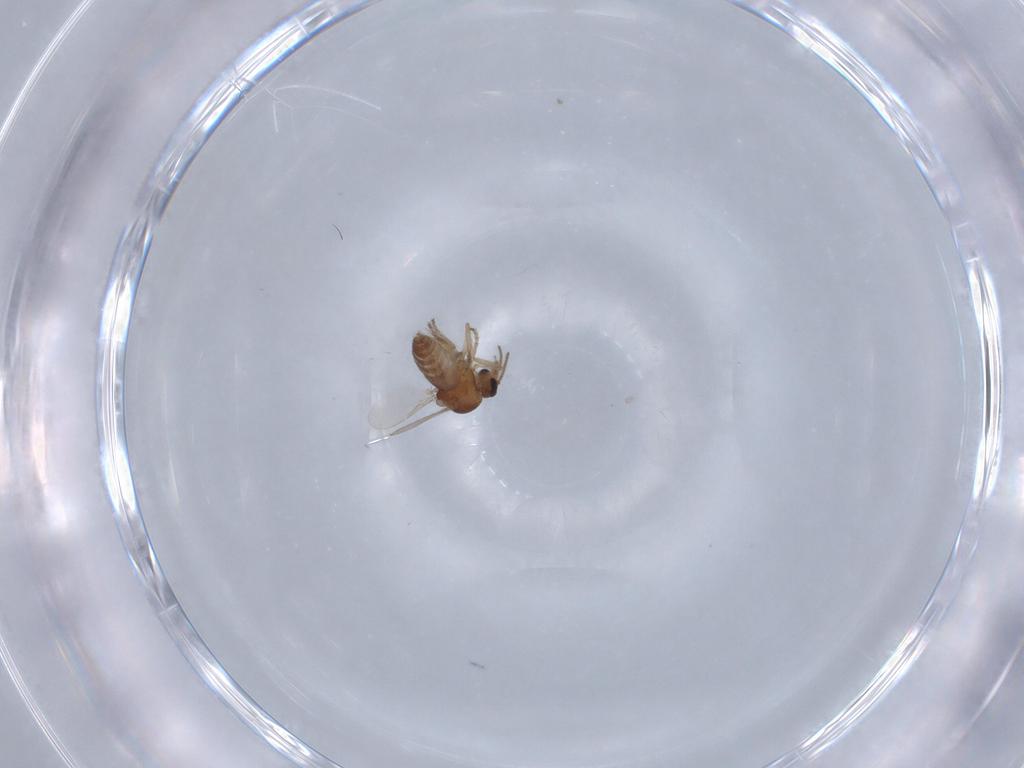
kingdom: Animalia
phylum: Arthropoda
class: Insecta
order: Diptera
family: Ceratopogonidae
